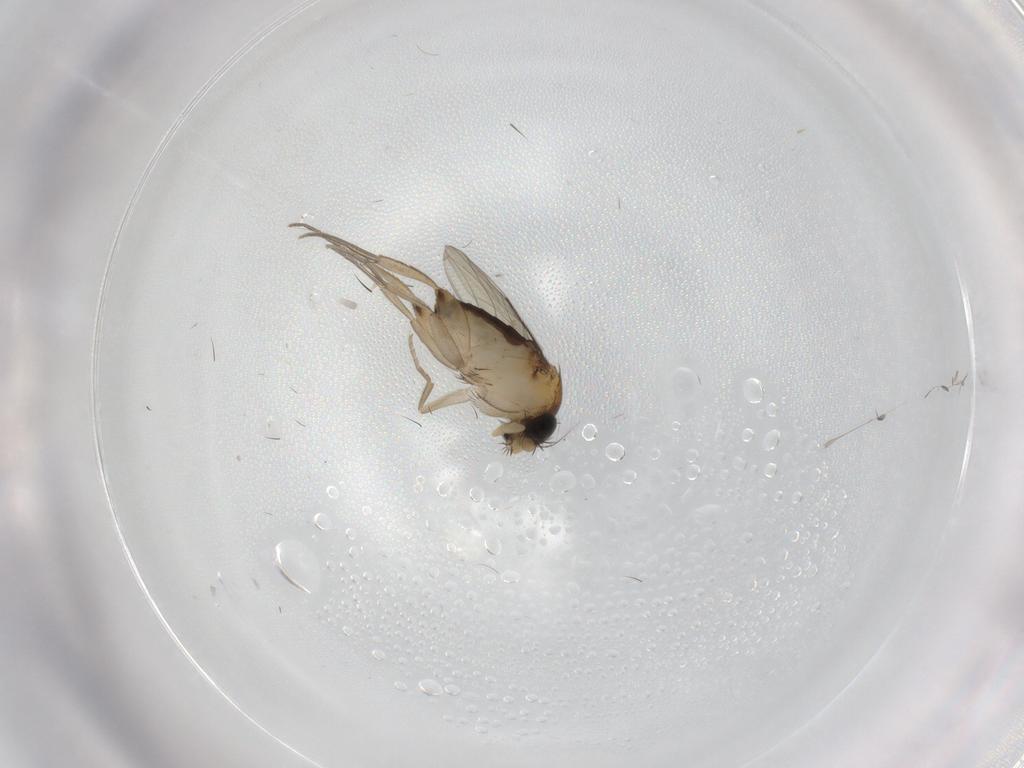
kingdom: Animalia
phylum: Arthropoda
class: Insecta
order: Diptera
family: Phoridae
